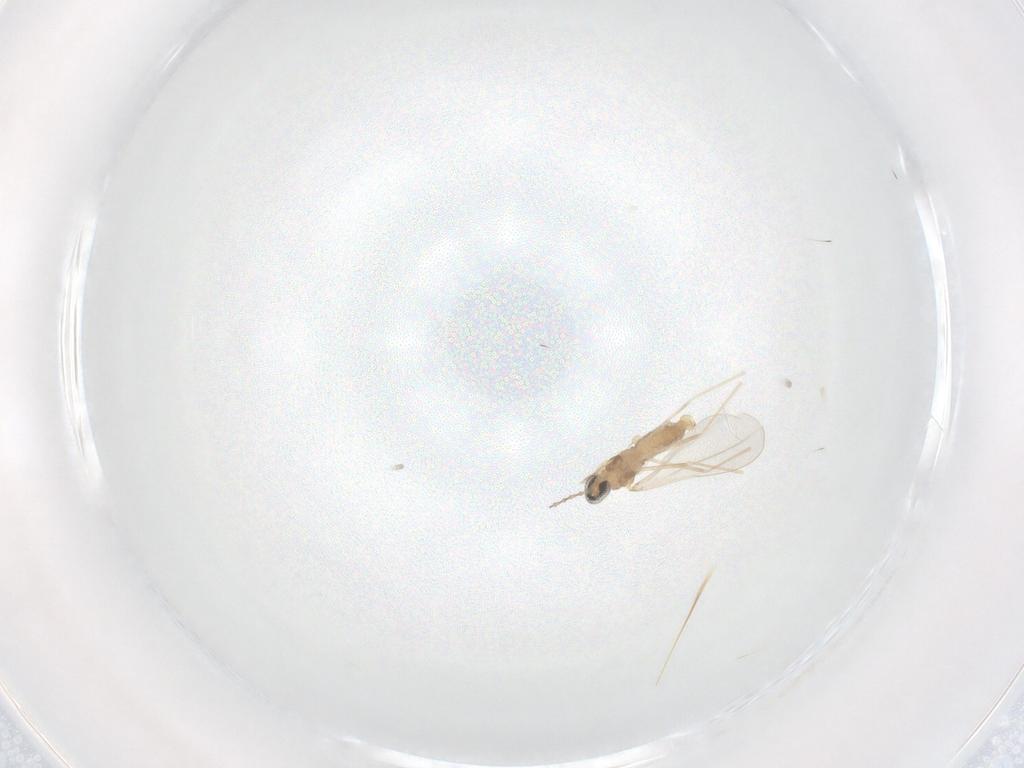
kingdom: Animalia
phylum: Arthropoda
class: Insecta
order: Diptera
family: Cecidomyiidae
